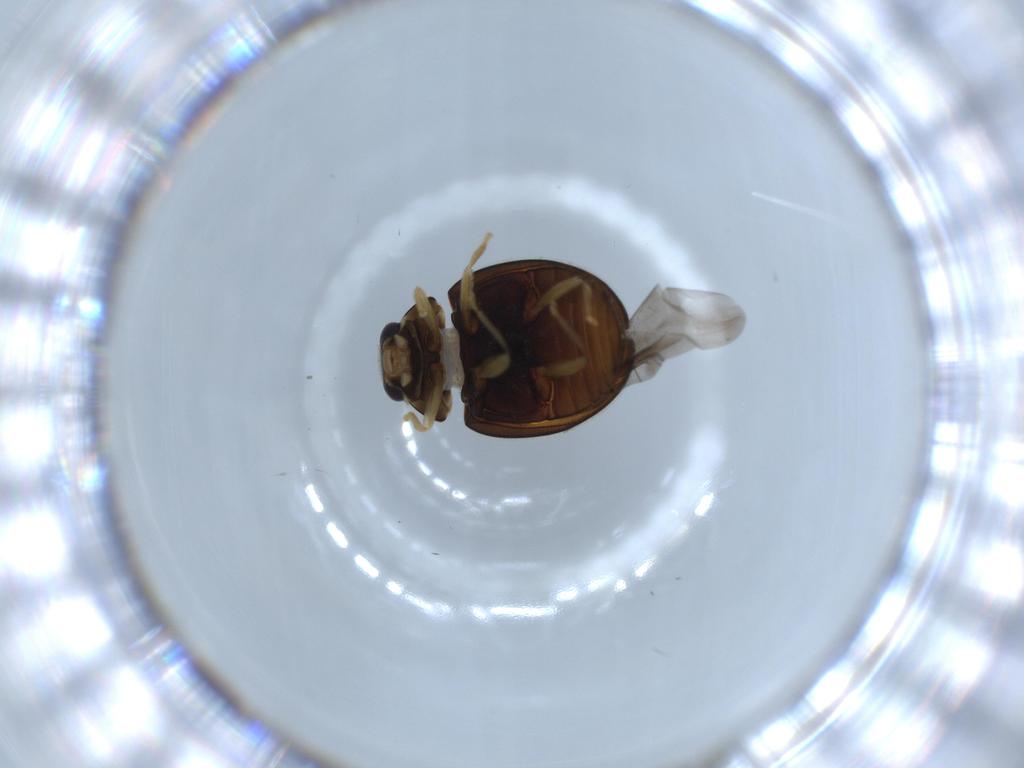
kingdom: Animalia
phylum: Arthropoda
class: Insecta
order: Coleoptera
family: Coccinellidae
